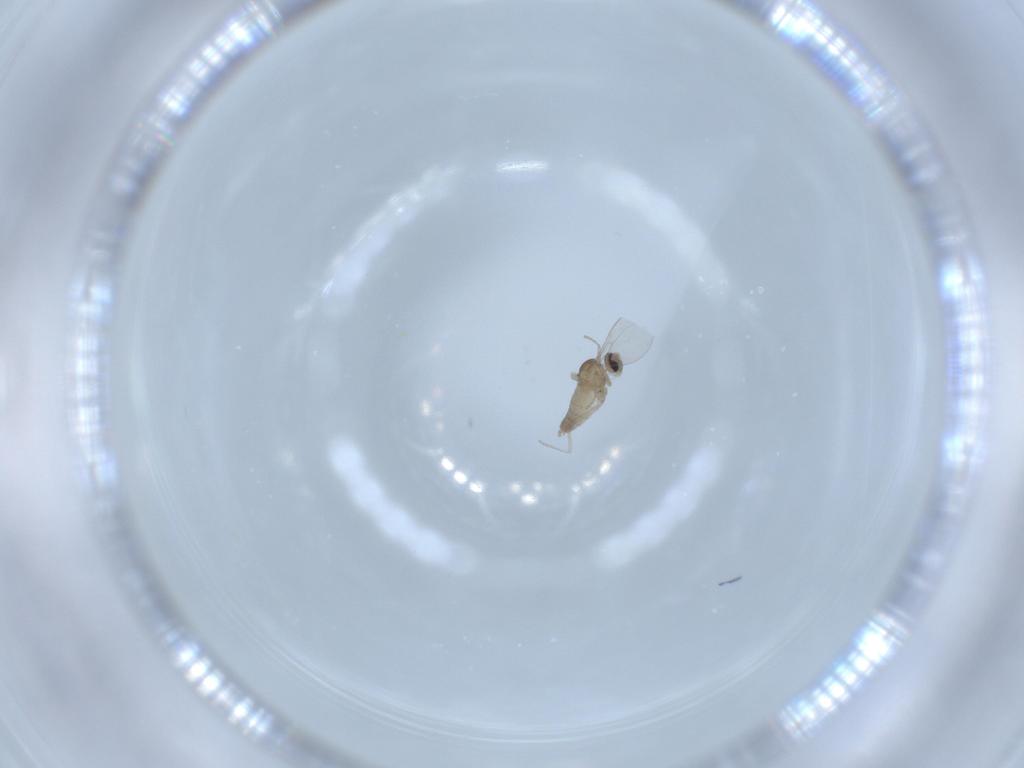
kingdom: Animalia
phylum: Arthropoda
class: Insecta
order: Diptera
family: Cecidomyiidae
